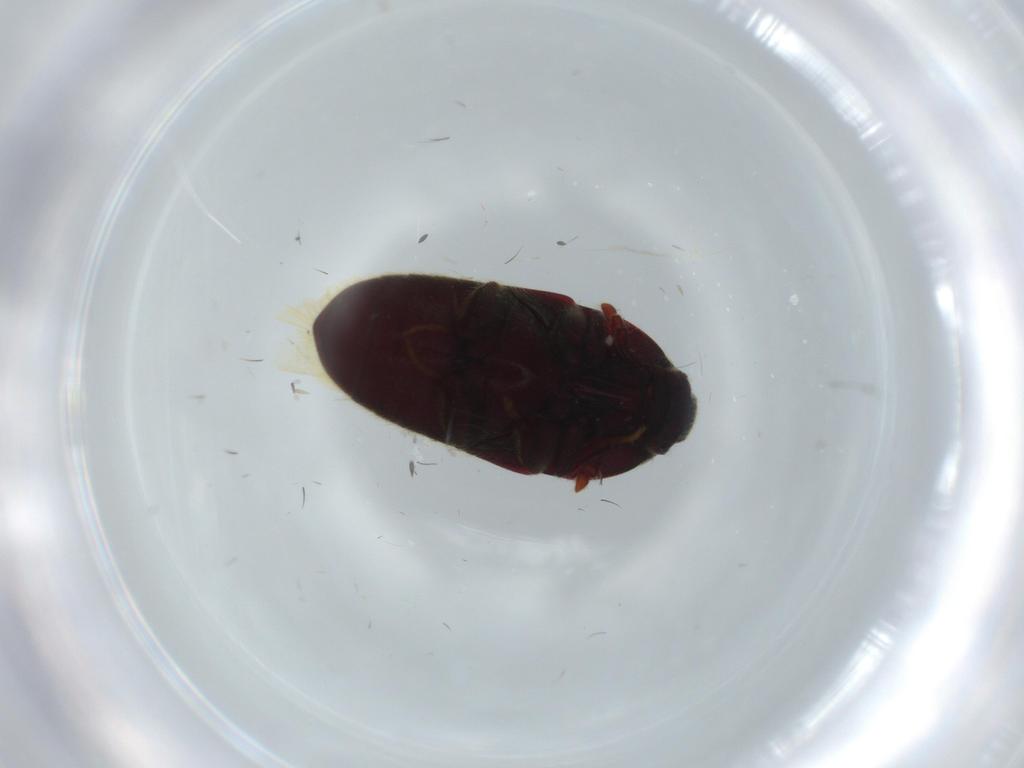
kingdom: Animalia
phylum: Arthropoda
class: Insecta
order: Coleoptera
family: Throscidae
